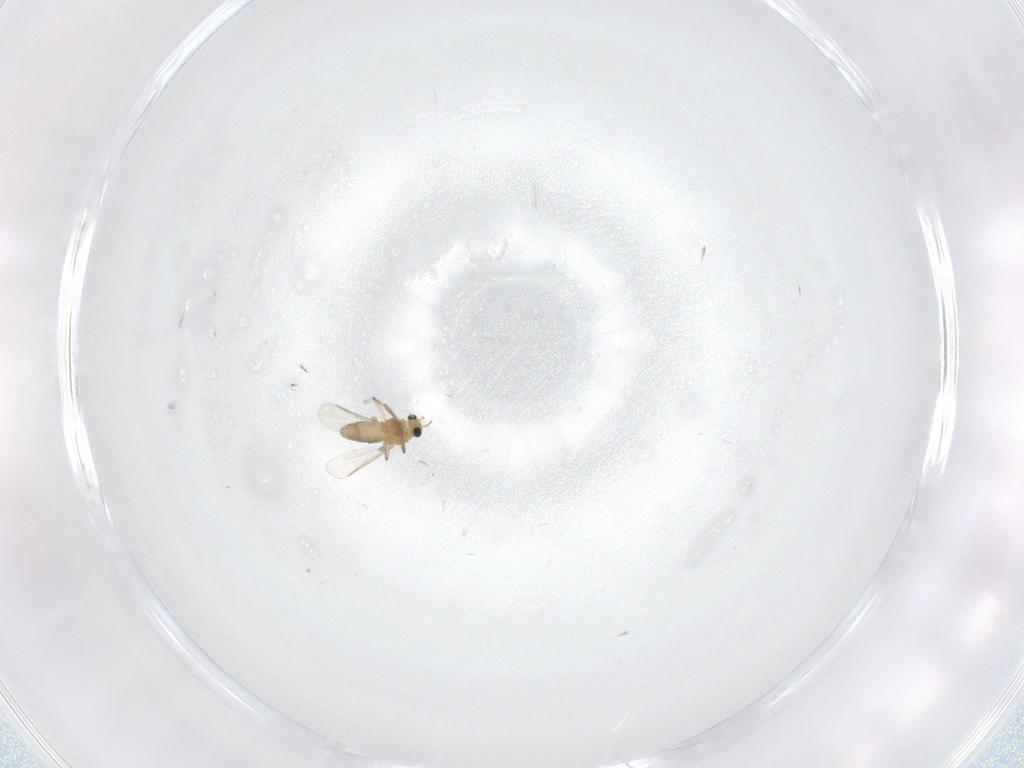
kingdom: Animalia
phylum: Arthropoda
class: Insecta
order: Diptera
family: Chironomidae
